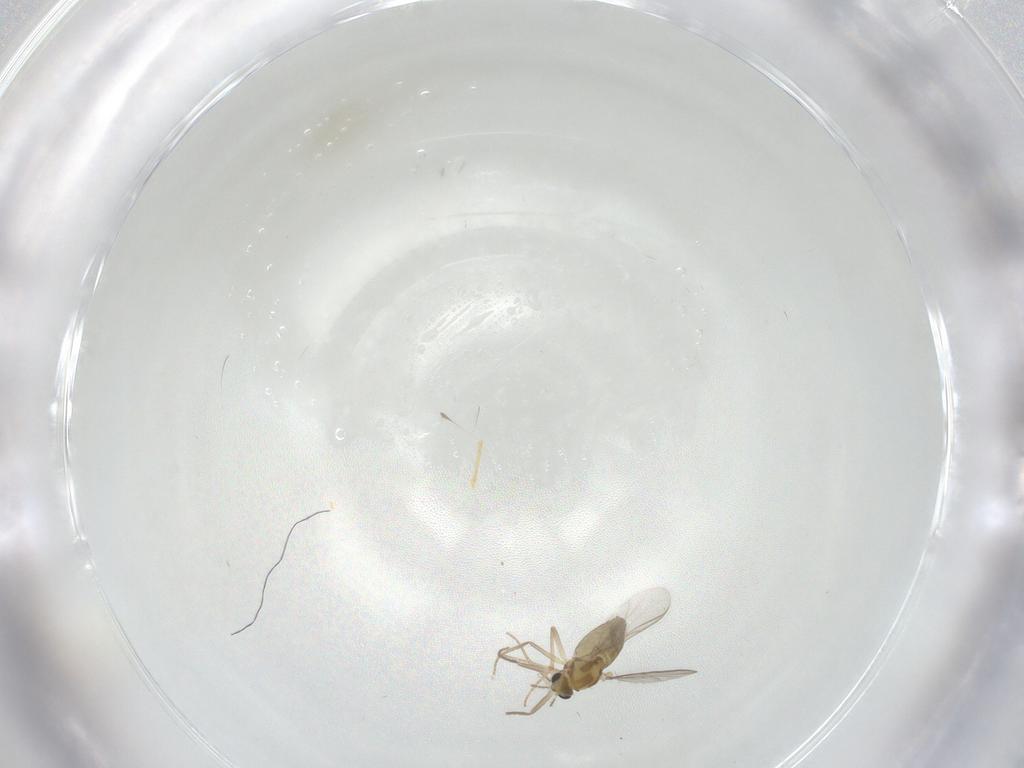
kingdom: Animalia
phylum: Arthropoda
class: Insecta
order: Diptera
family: Chironomidae
